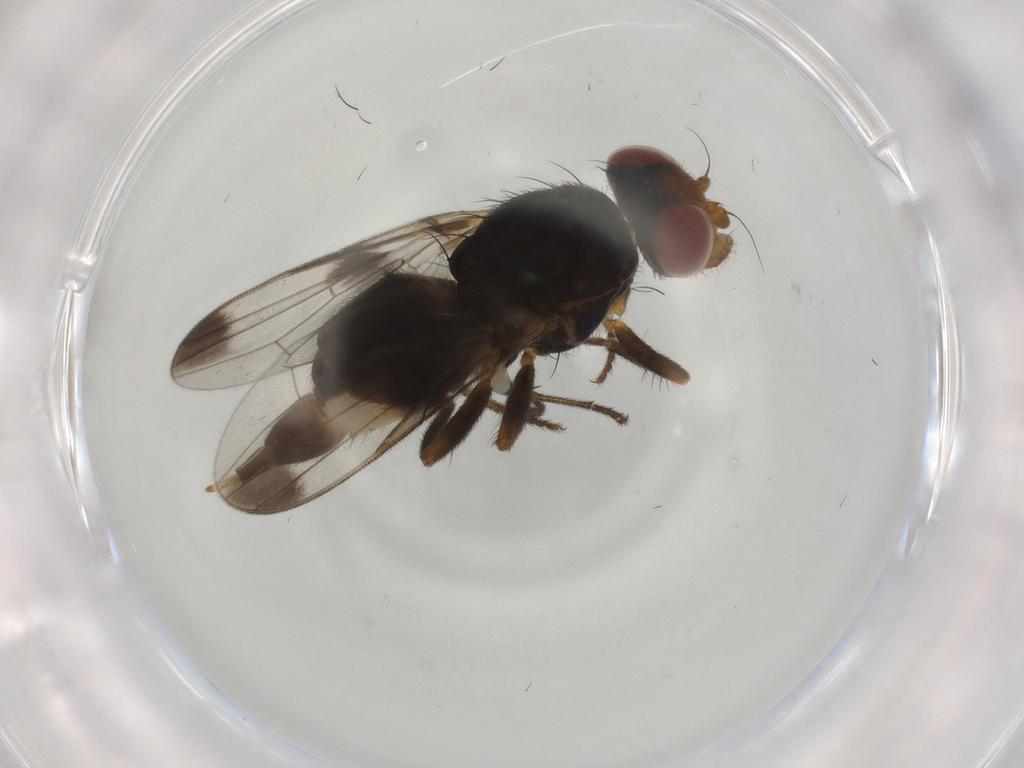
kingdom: Animalia
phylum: Arthropoda
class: Insecta
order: Diptera
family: Ulidiidae
